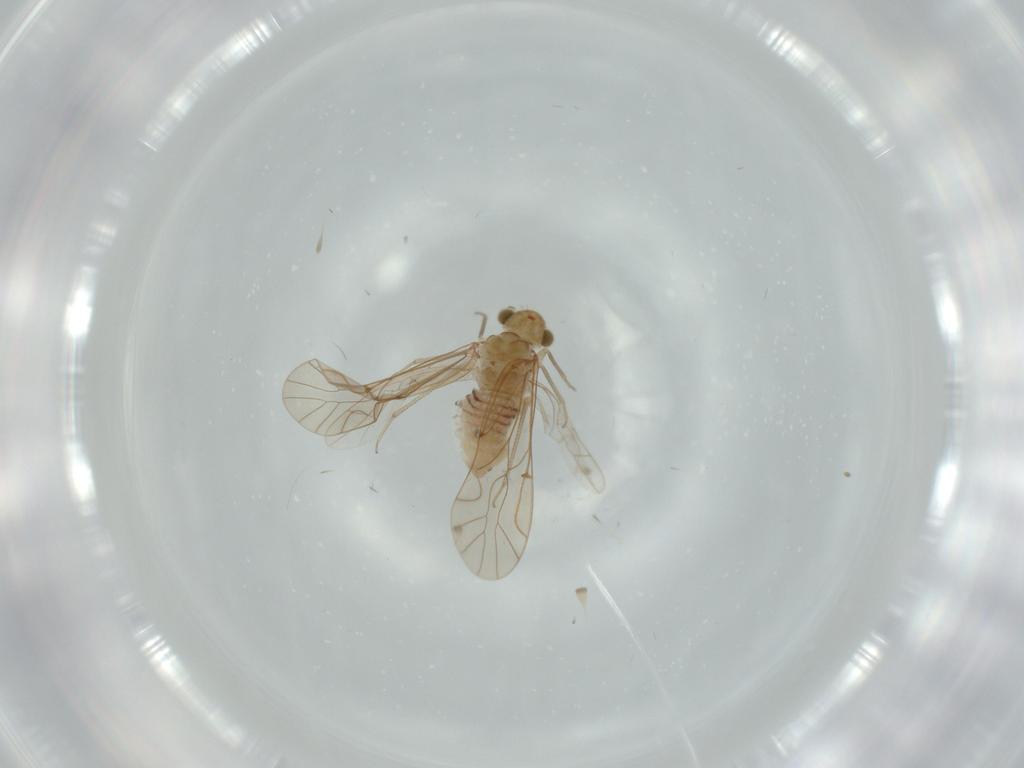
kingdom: Animalia
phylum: Arthropoda
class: Insecta
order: Psocodea
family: Lachesillidae
